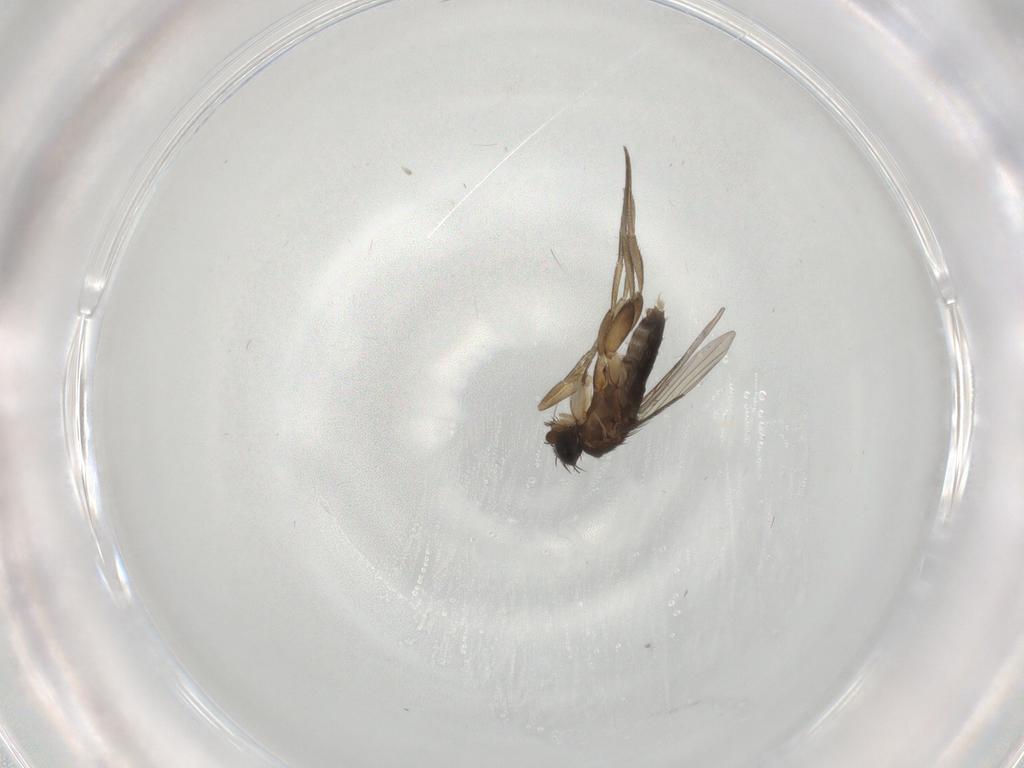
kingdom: Animalia
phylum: Arthropoda
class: Insecta
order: Diptera
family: Phoridae
